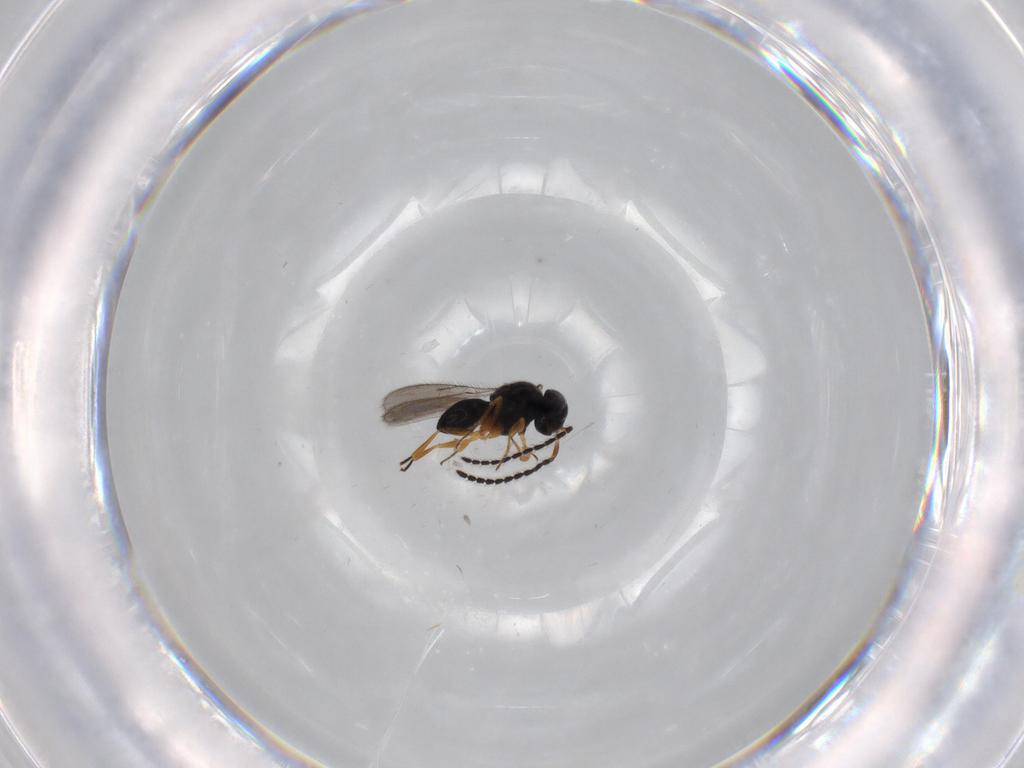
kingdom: Animalia
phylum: Arthropoda
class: Insecta
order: Hymenoptera
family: Scelionidae
